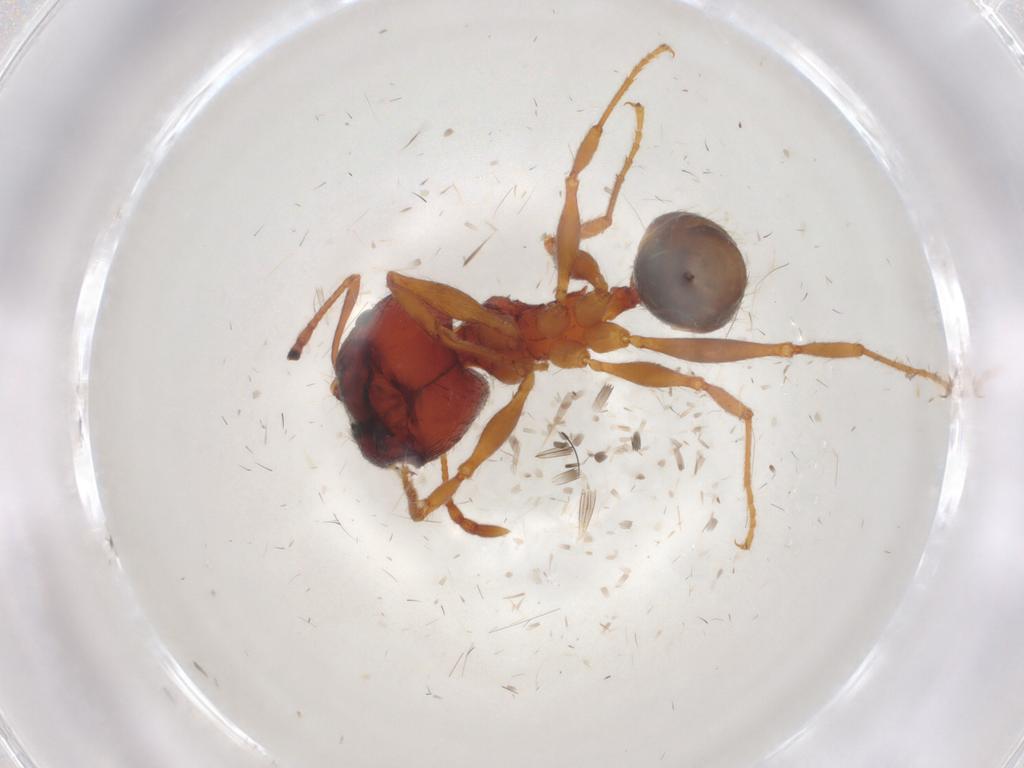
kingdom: Animalia
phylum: Arthropoda
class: Insecta
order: Hymenoptera
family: Formicidae
